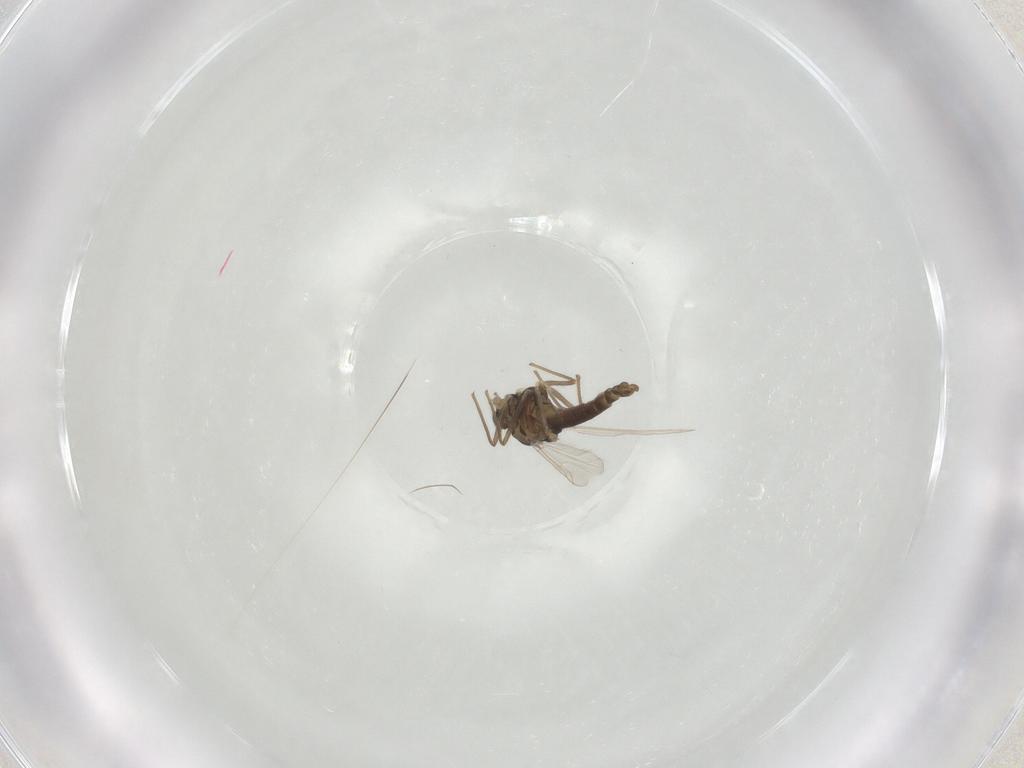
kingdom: Animalia
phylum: Arthropoda
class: Insecta
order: Diptera
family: Chironomidae
